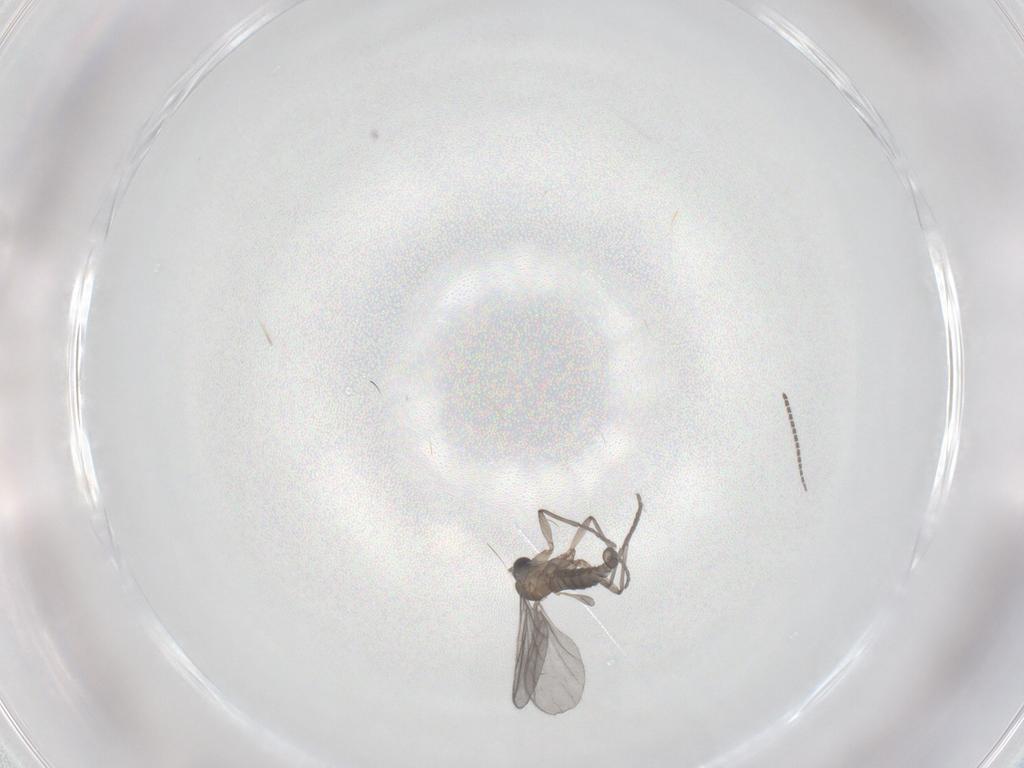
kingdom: Animalia
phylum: Arthropoda
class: Insecta
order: Diptera
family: Sciaridae
